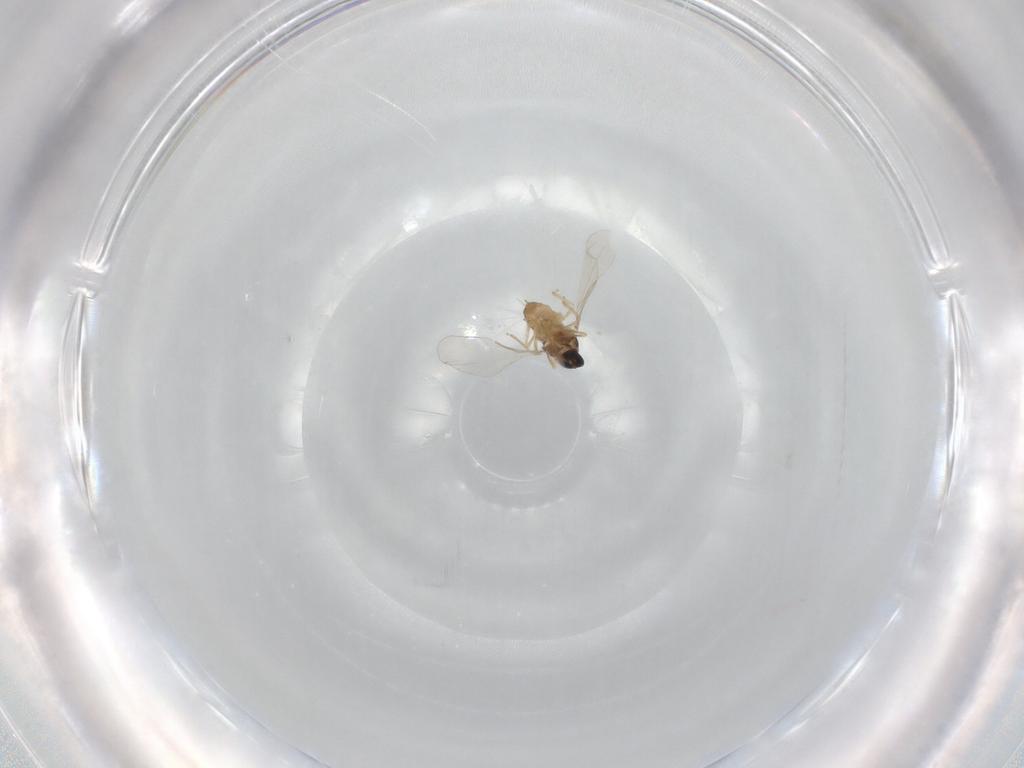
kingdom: Animalia
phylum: Arthropoda
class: Insecta
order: Diptera
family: Cecidomyiidae
